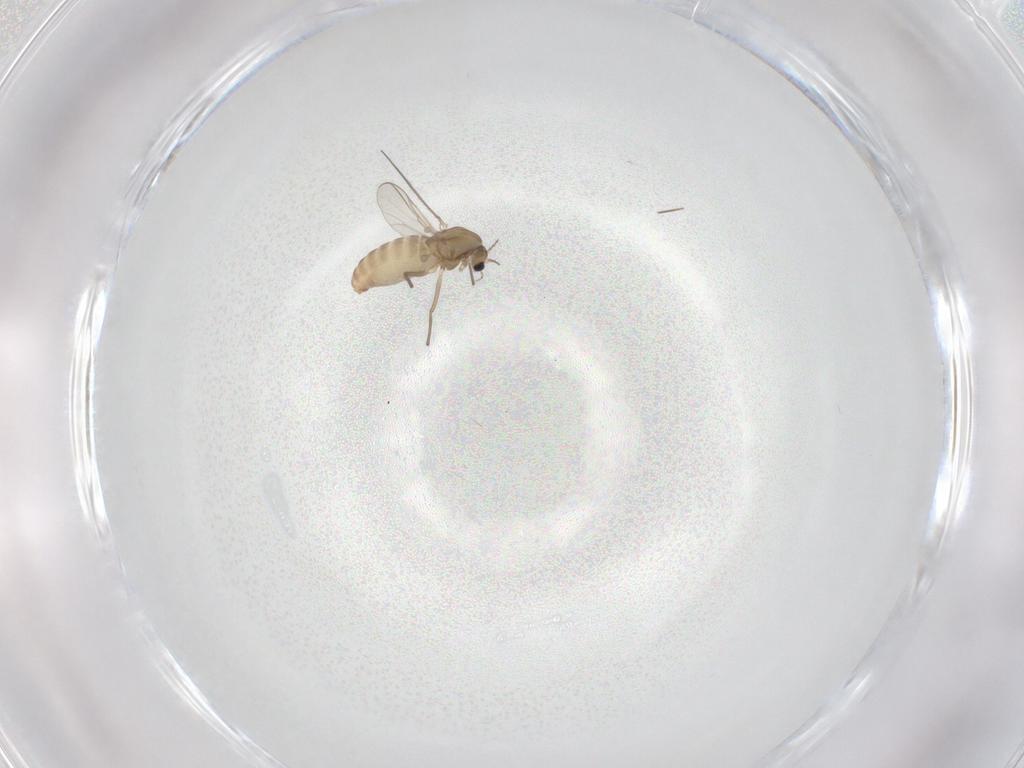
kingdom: Animalia
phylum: Arthropoda
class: Insecta
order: Diptera
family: Chironomidae
